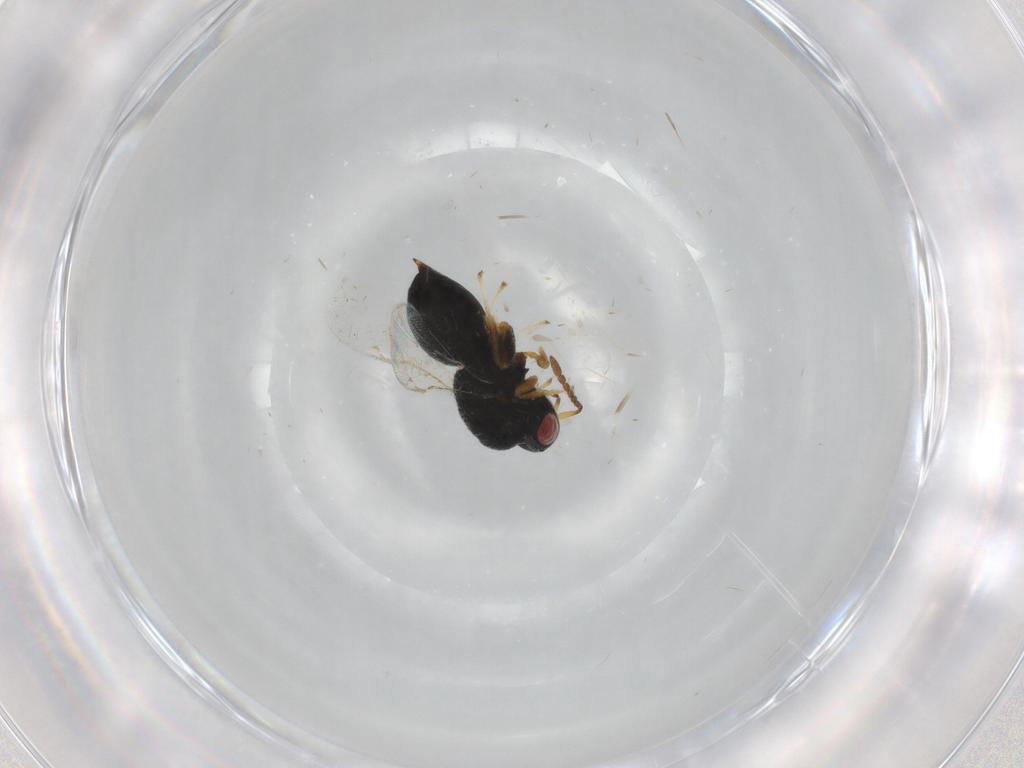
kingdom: Animalia
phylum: Arthropoda
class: Insecta
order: Hymenoptera
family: Eurytomidae
